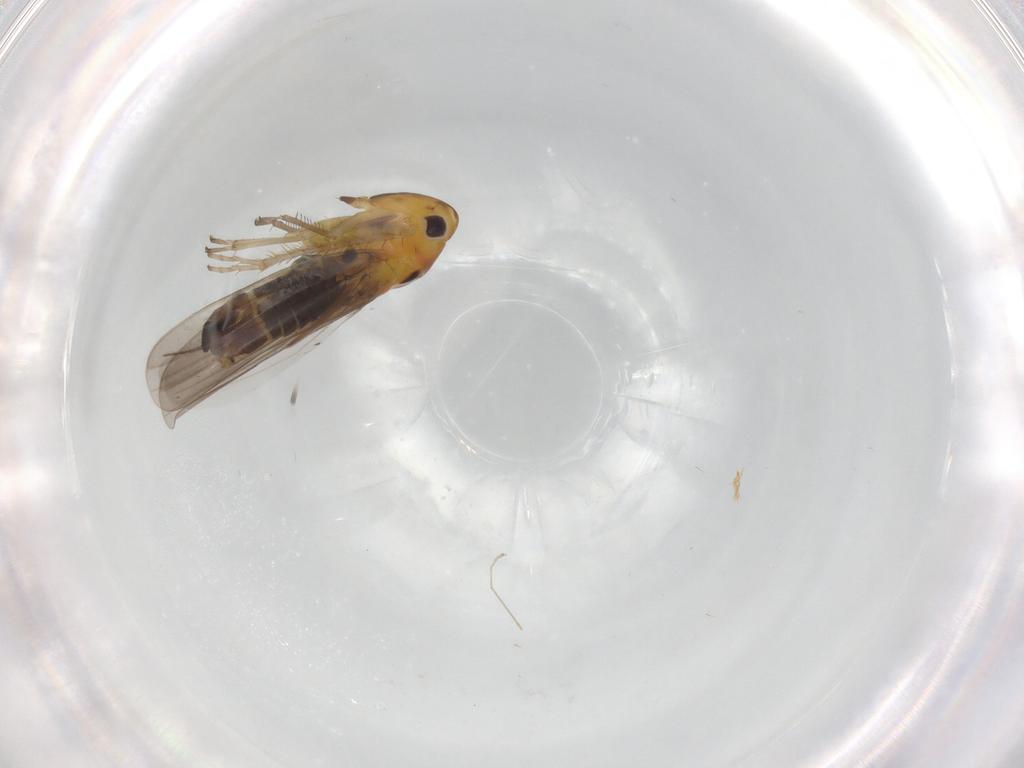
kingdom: Animalia
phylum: Arthropoda
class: Insecta
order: Hemiptera
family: Cicadellidae
